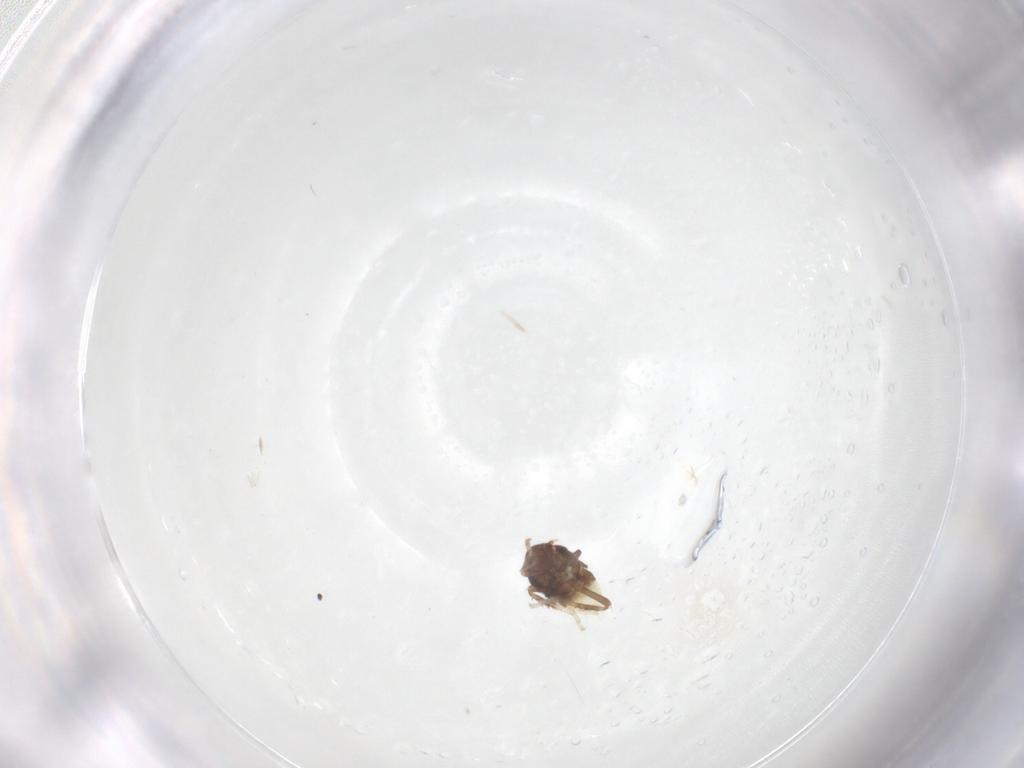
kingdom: Animalia
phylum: Arthropoda
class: Insecta
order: Hemiptera
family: Cicadellidae
